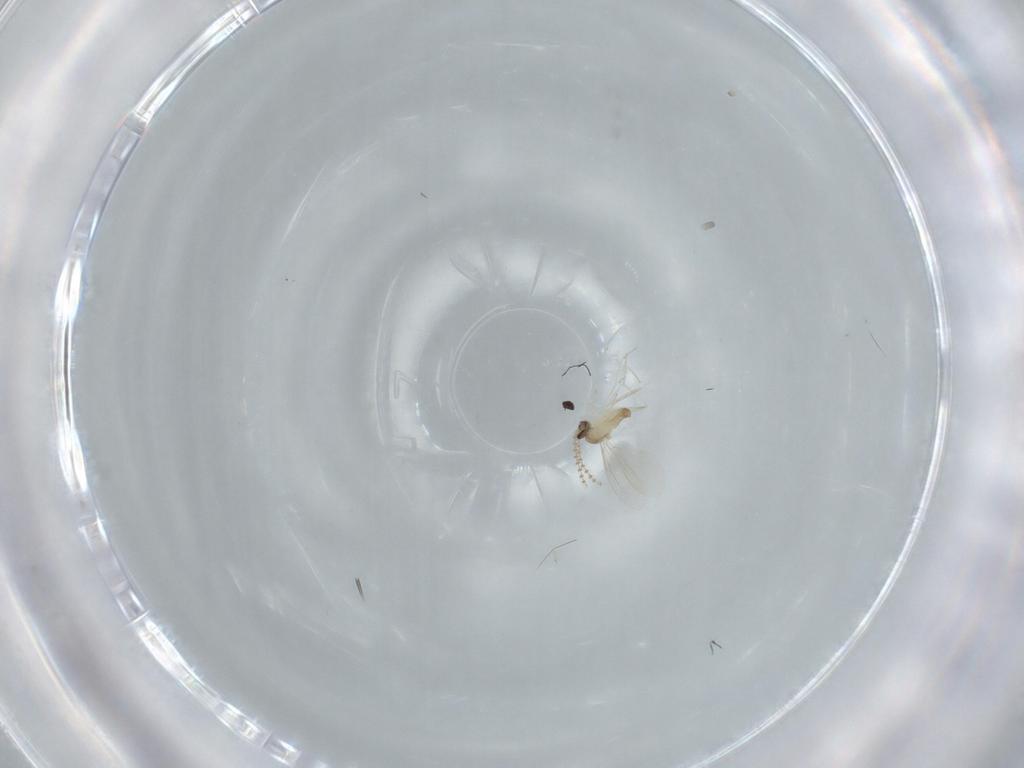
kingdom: Animalia
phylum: Arthropoda
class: Insecta
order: Diptera
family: Cecidomyiidae
